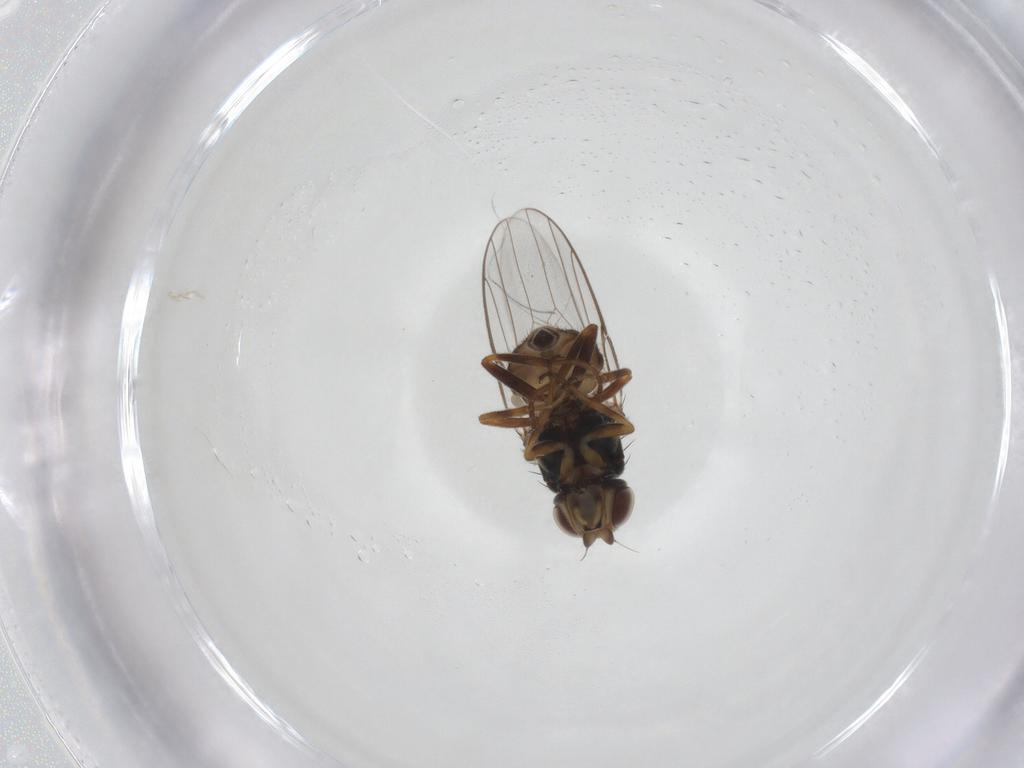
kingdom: Animalia
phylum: Arthropoda
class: Insecta
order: Diptera
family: Chloropidae
